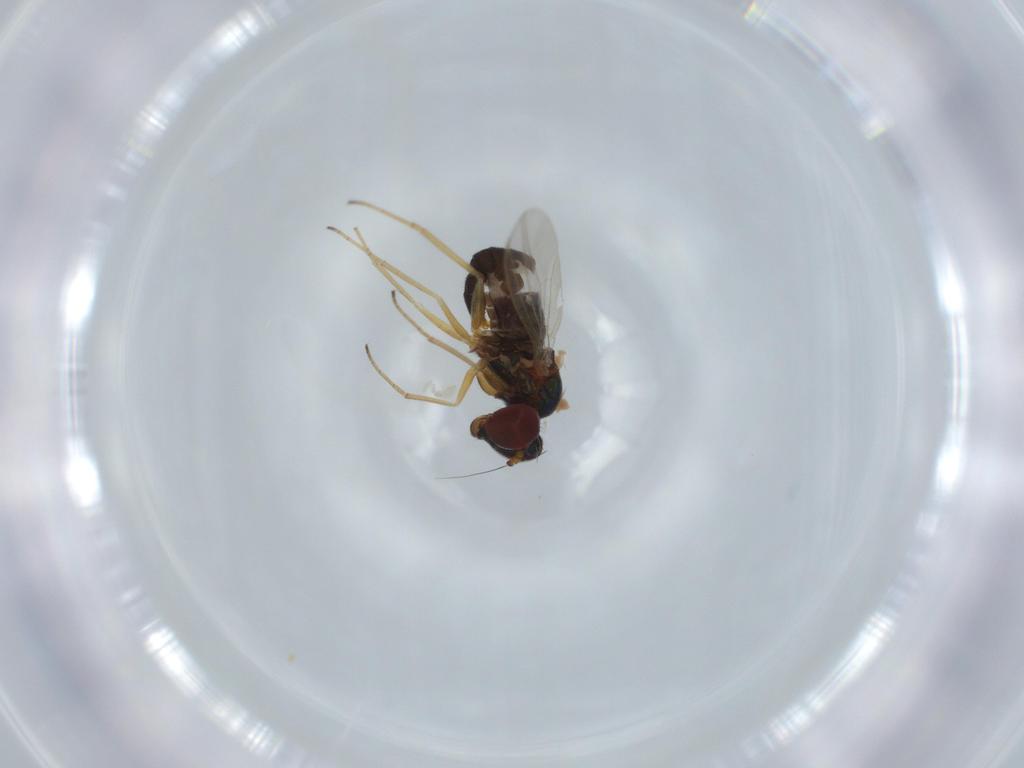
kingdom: Animalia
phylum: Arthropoda
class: Insecta
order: Diptera
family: Dolichopodidae
